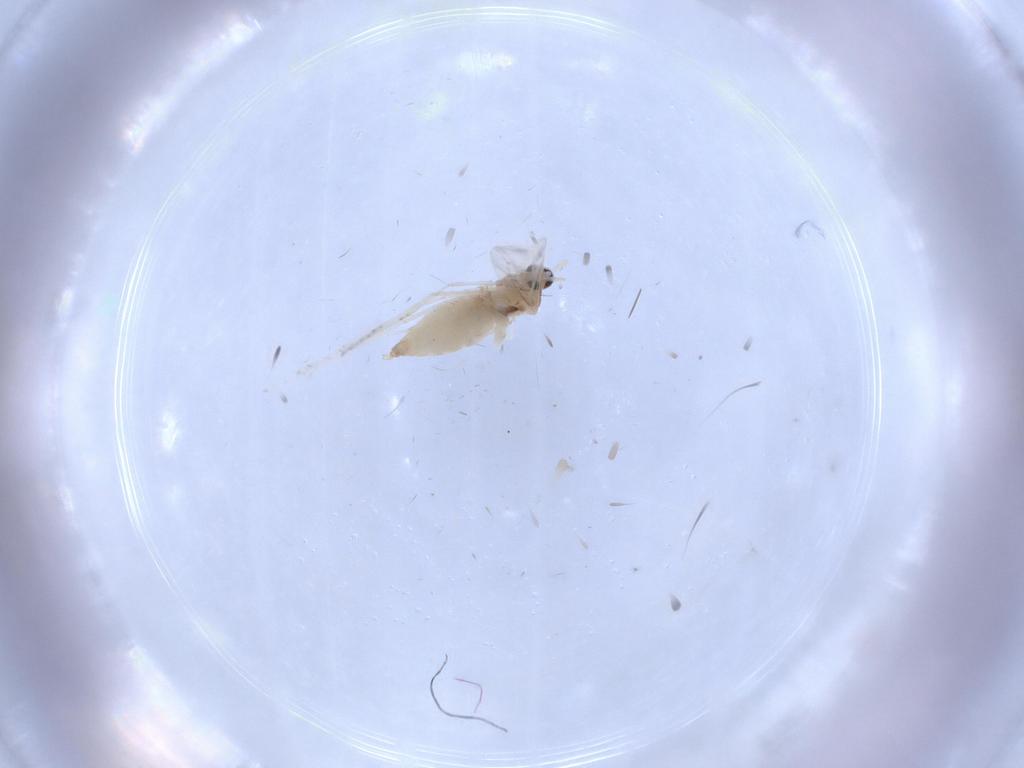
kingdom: Animalia
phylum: Arthropoda
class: Insecta
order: Diptera
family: Cecidomyiidae
